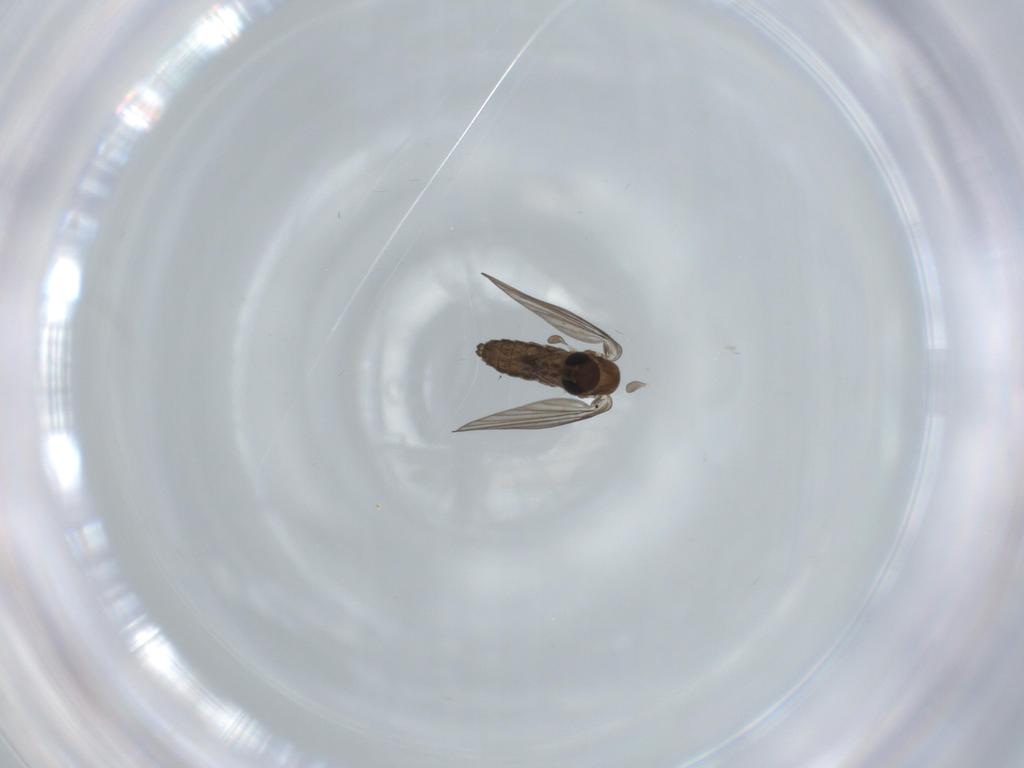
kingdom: Animalia
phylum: Arthropoda
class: Insecta
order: Diptera
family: Psychodidae
